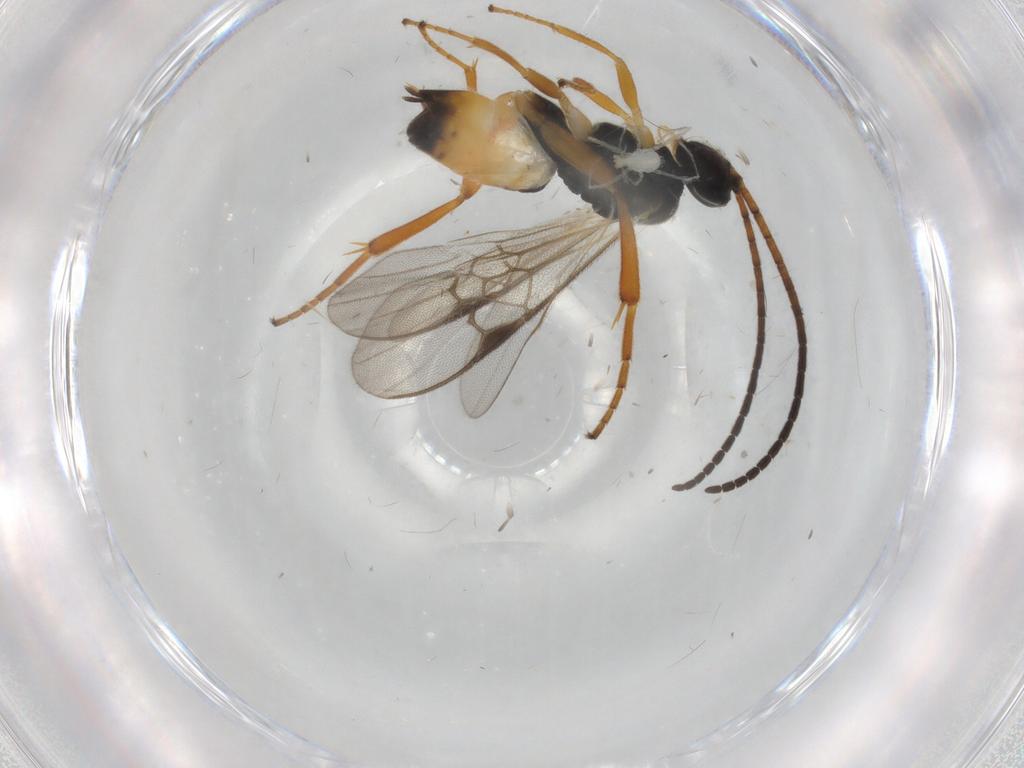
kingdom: Animalia
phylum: Arthropoda
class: Insecta
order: Hymenoptera
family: Braconidae
